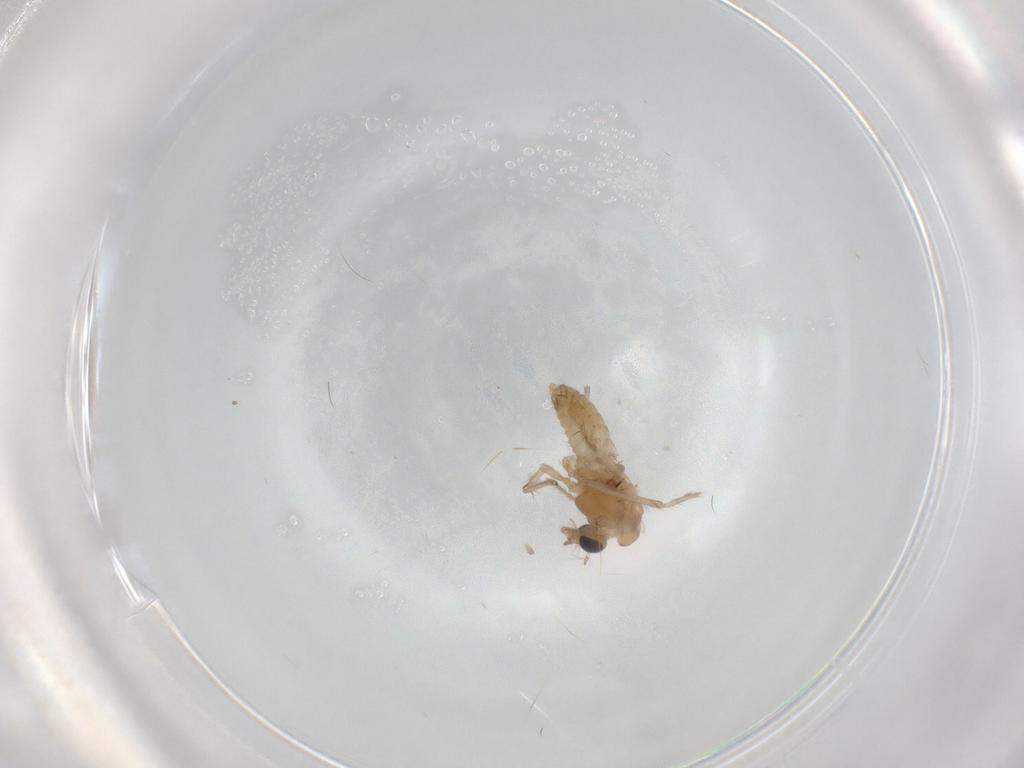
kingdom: Animalia
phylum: Arthropoda
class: Insecta
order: Diptera
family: Chironomidae
